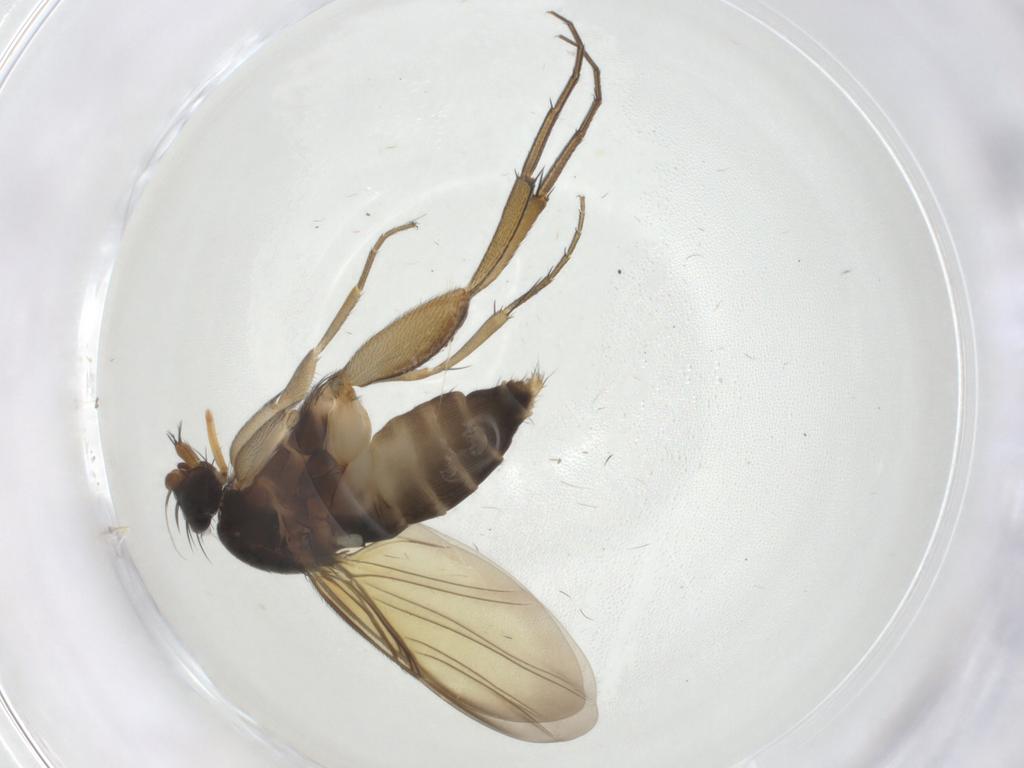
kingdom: Animalia
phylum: Arthropoda
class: Insecta
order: Diptera
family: Phoridae
